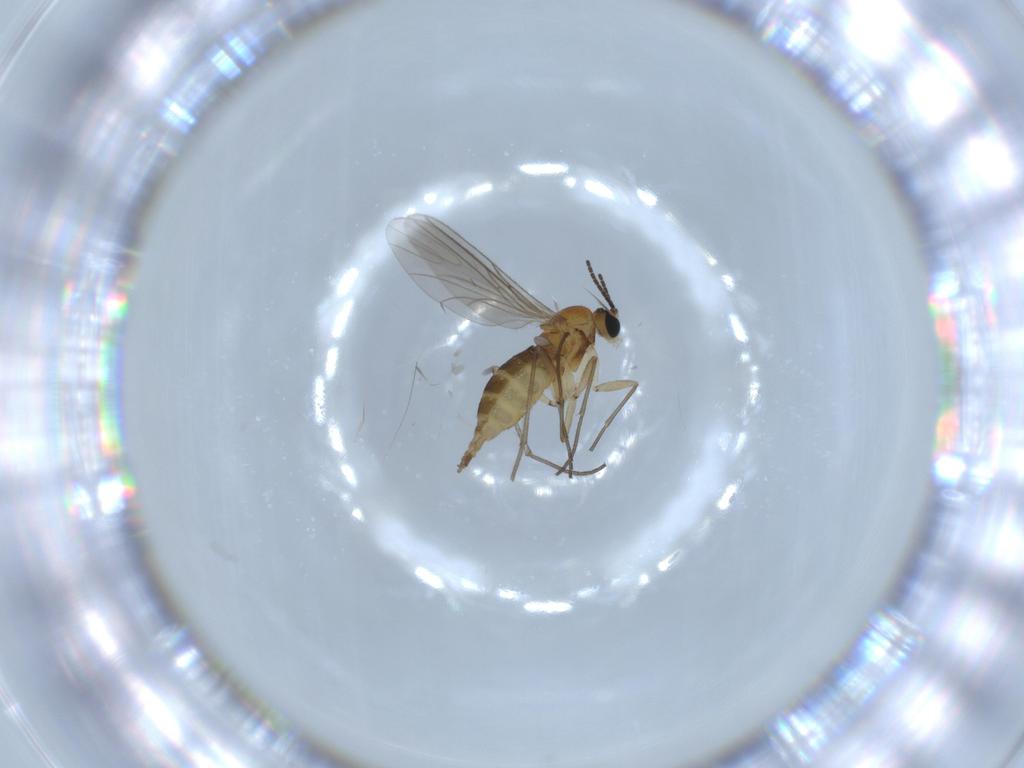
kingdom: Animalia
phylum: Arthropoda
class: Insecta
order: Diptera
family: Sciaridae
